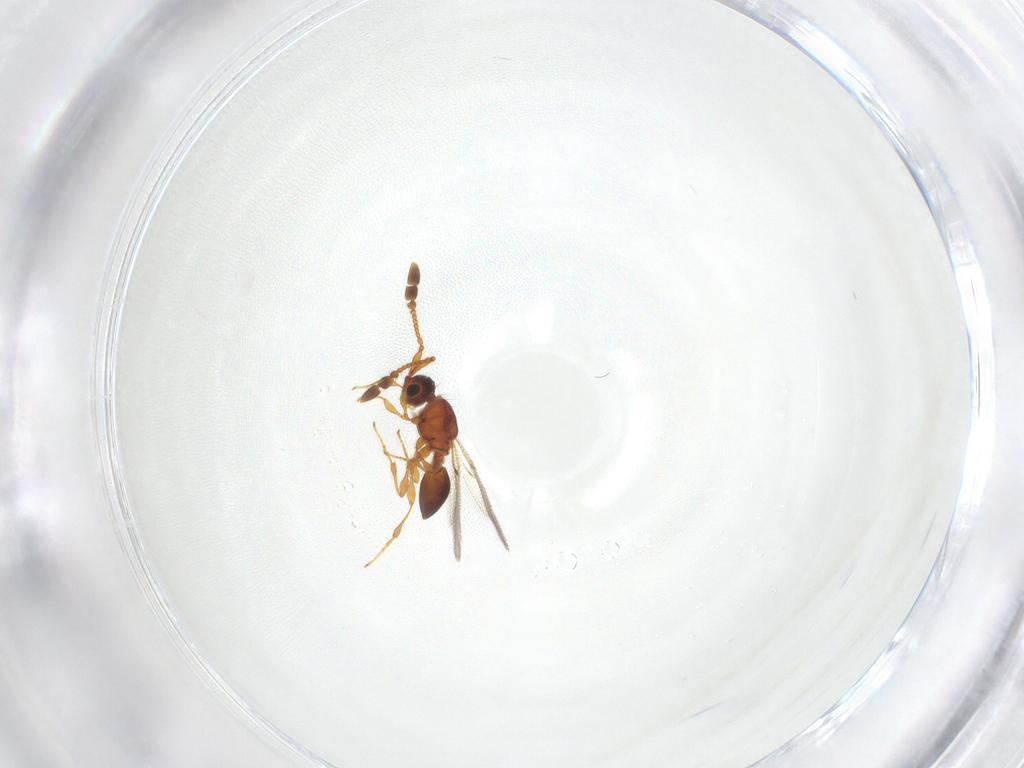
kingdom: Animalia
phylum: Arthropoda
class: Insecta
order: Hymenoptera
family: Diapriidae
